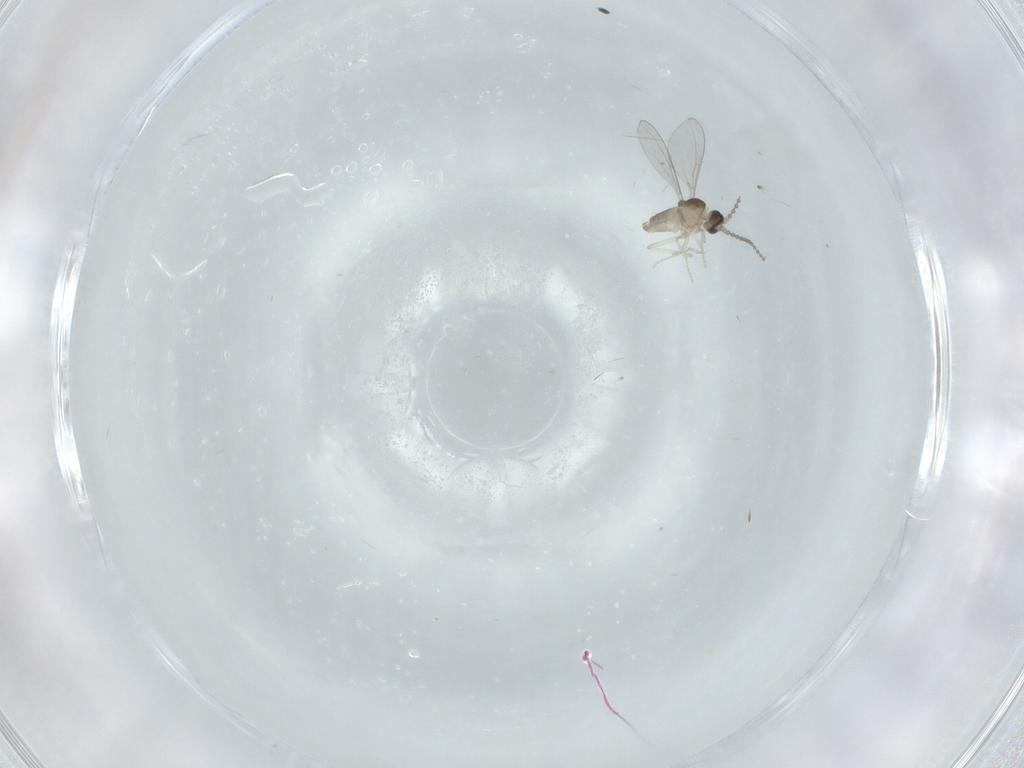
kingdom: Animalia
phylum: Arthropoda
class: Insecta
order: Diptera
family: Cecidomyiidae
